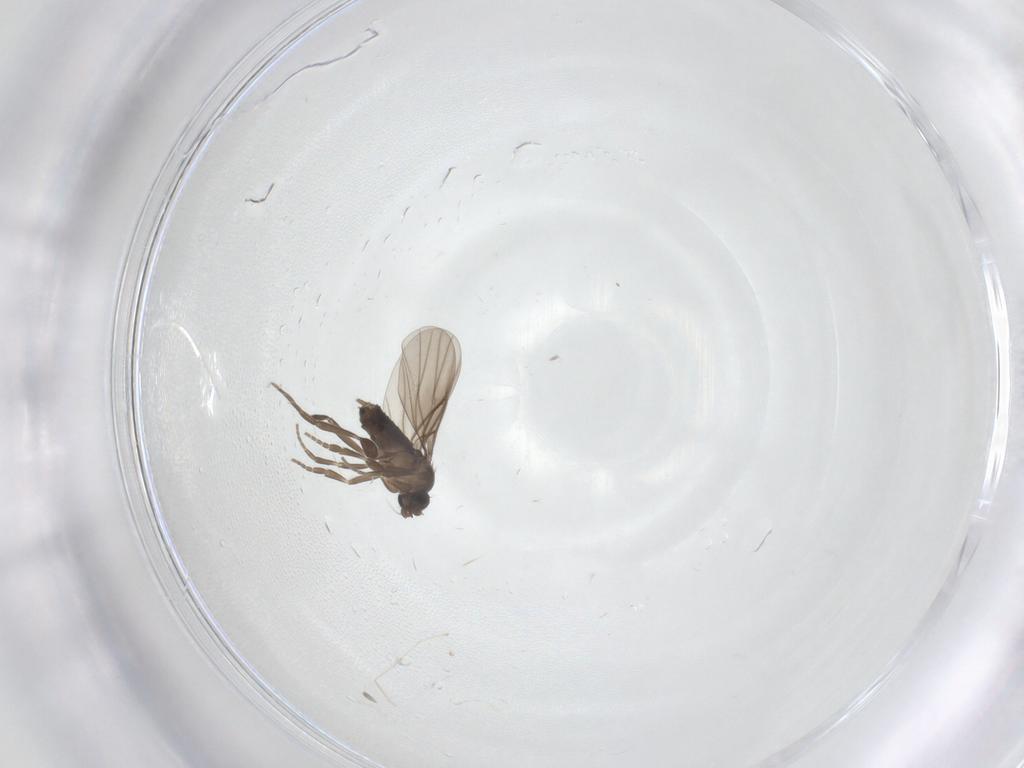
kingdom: Animalia
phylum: Arthropoda
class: Insecta
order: Diptera
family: Phoridae
